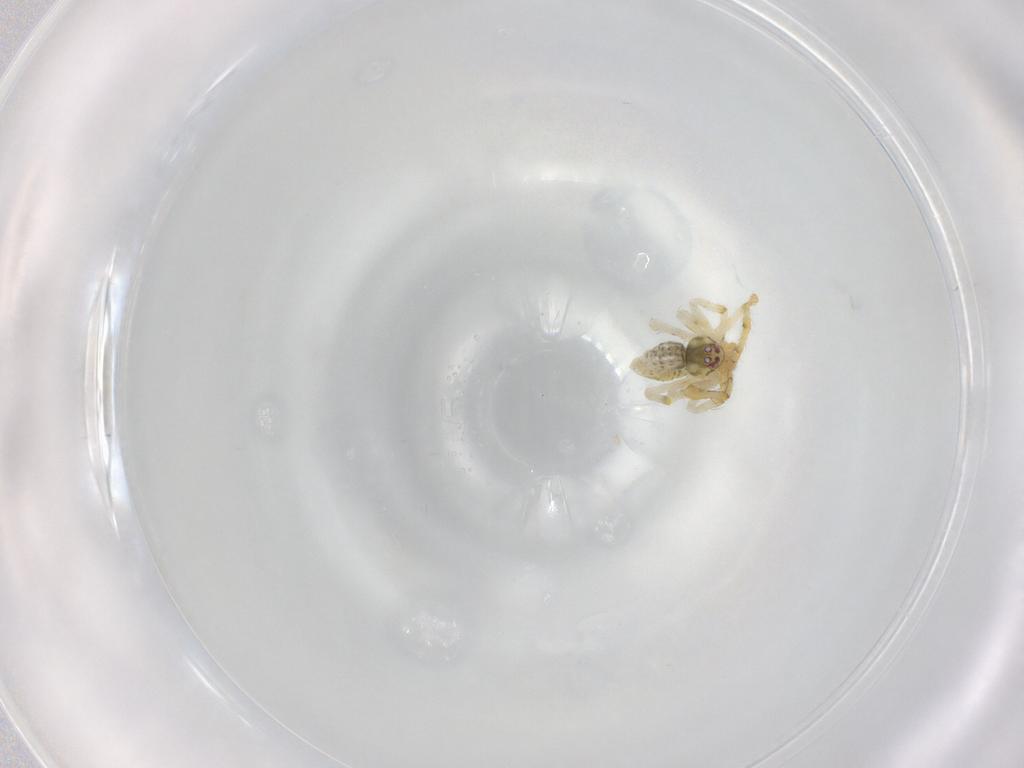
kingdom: Animalia
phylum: Arthropoda
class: Arachnida
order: Araneae
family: Theridiidae
